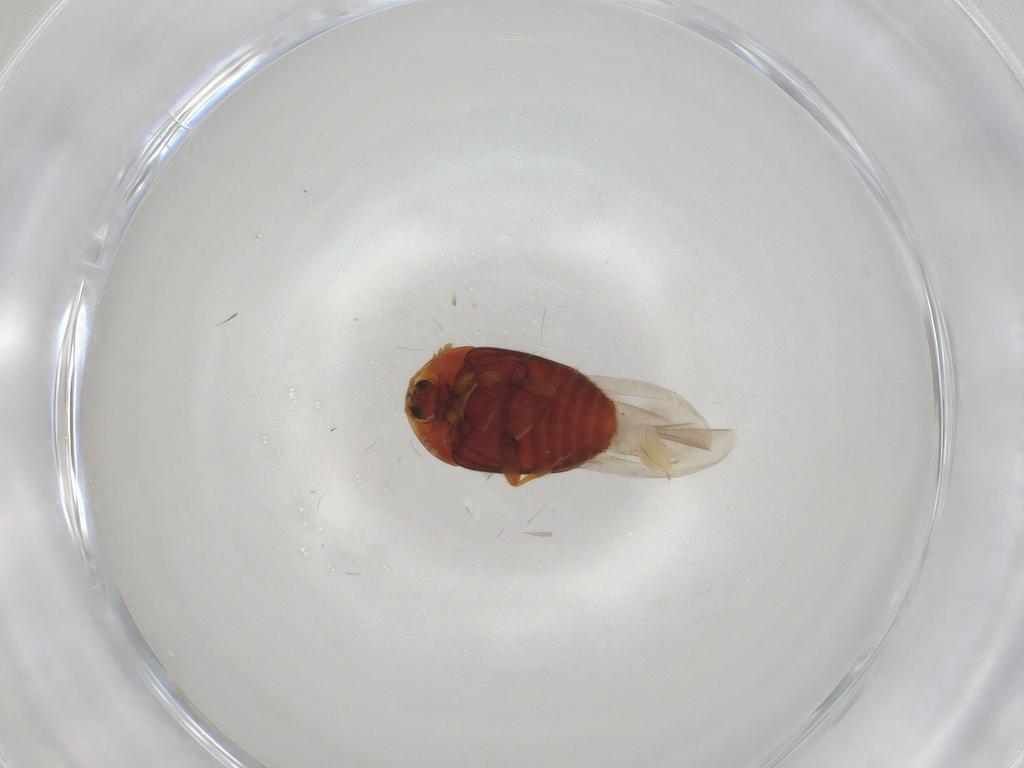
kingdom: Animalia
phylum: Arthropoda
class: Insecta
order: Coleoptera
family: Corylophidae
